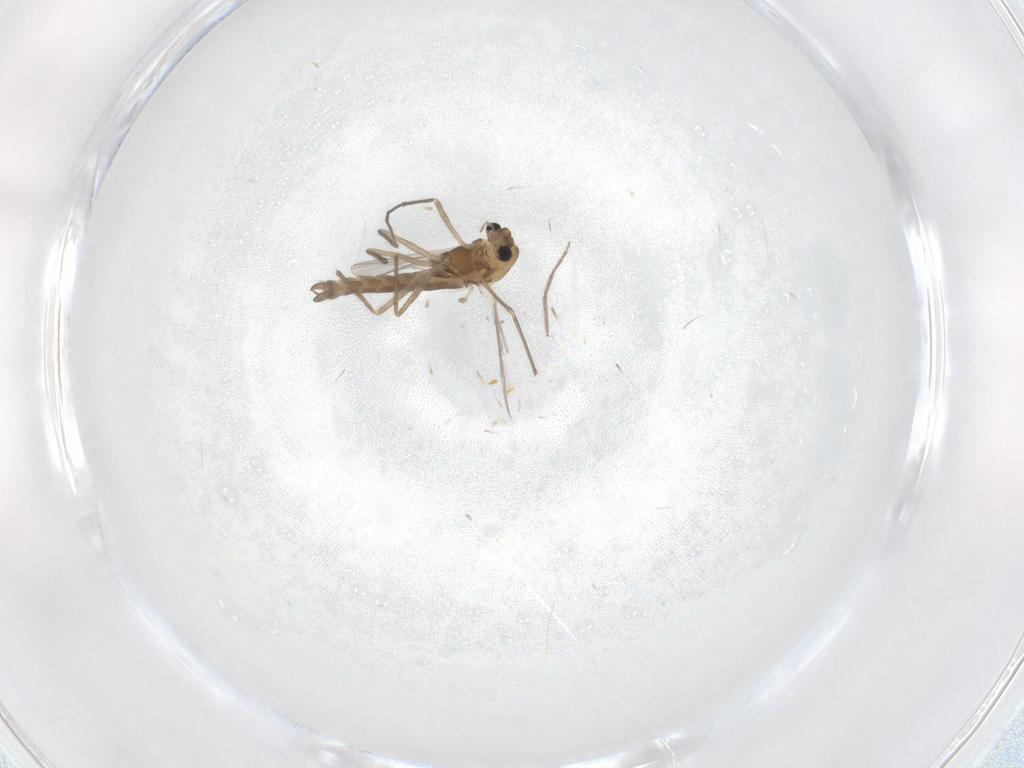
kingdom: Animalia
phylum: Arthropoda
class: Insecta
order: Diptera
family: Chironomidae
